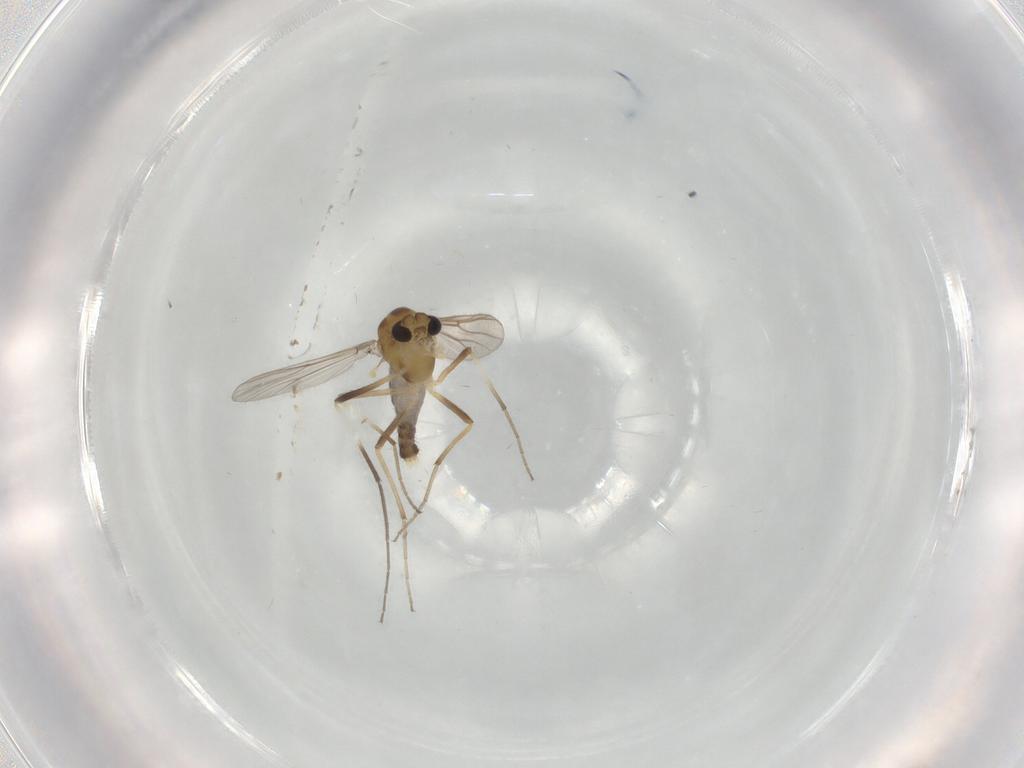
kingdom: Animalia
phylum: Arthropoda
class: Insecta
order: Diptera
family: Chironomidae
